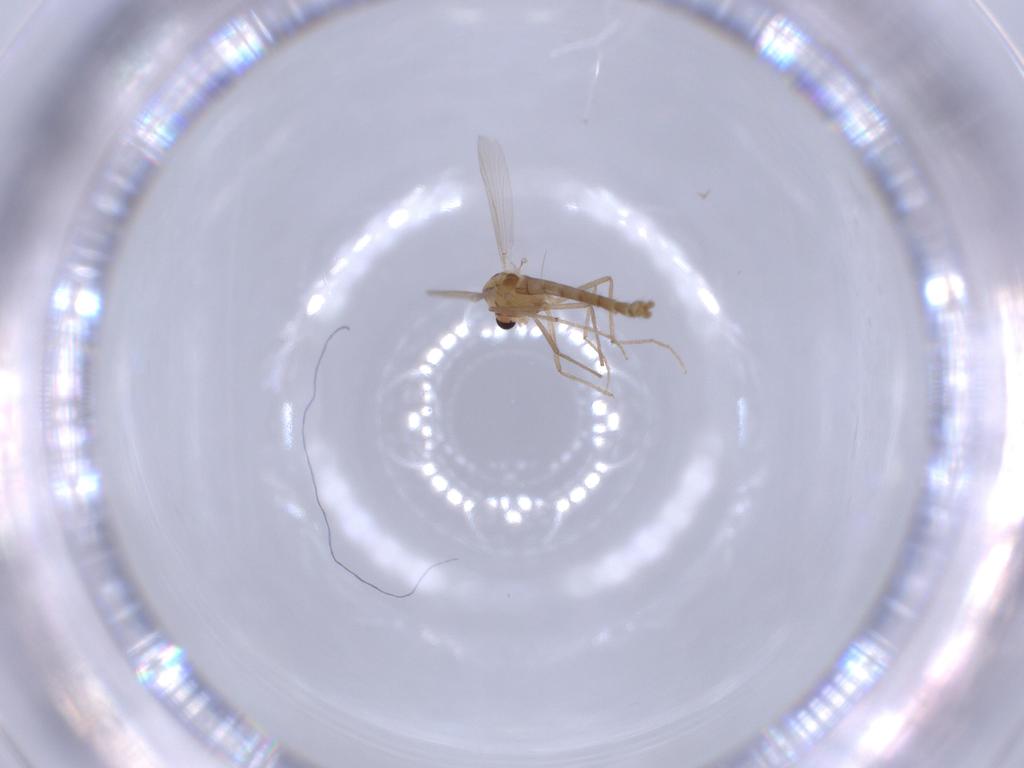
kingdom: Animalia
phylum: Arthropoda
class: Insecta
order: Diptera
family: Chironomidae
